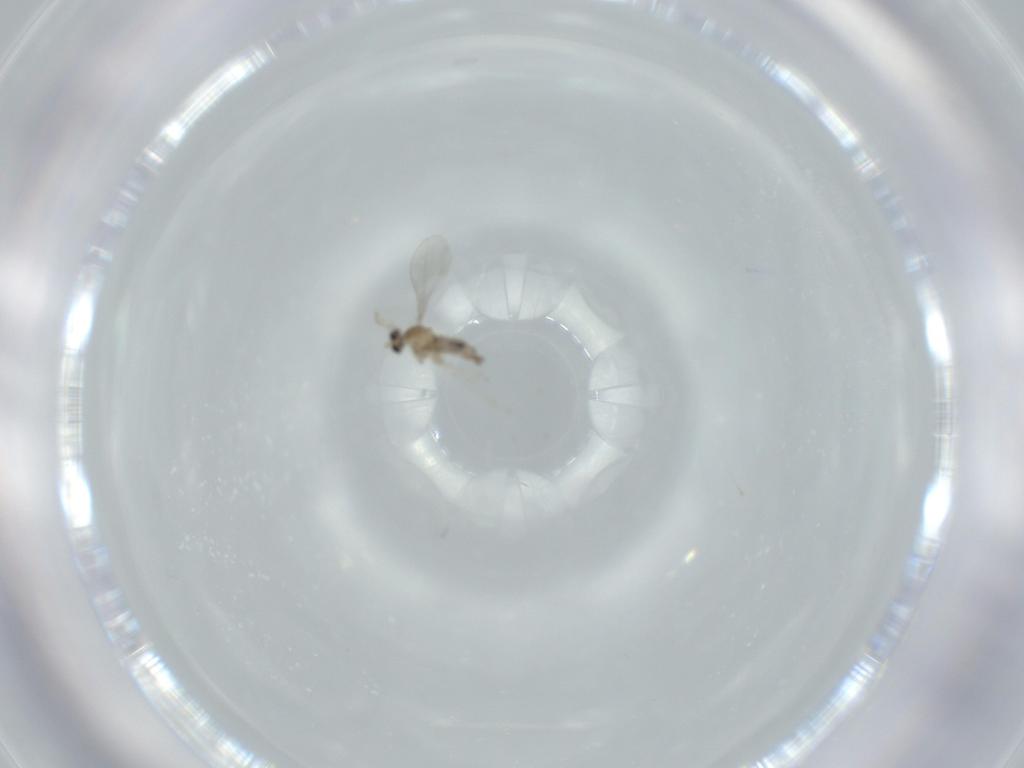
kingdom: Animalia
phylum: Arthropoda
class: Insecta
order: Diptera
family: Cecidomyiidae
